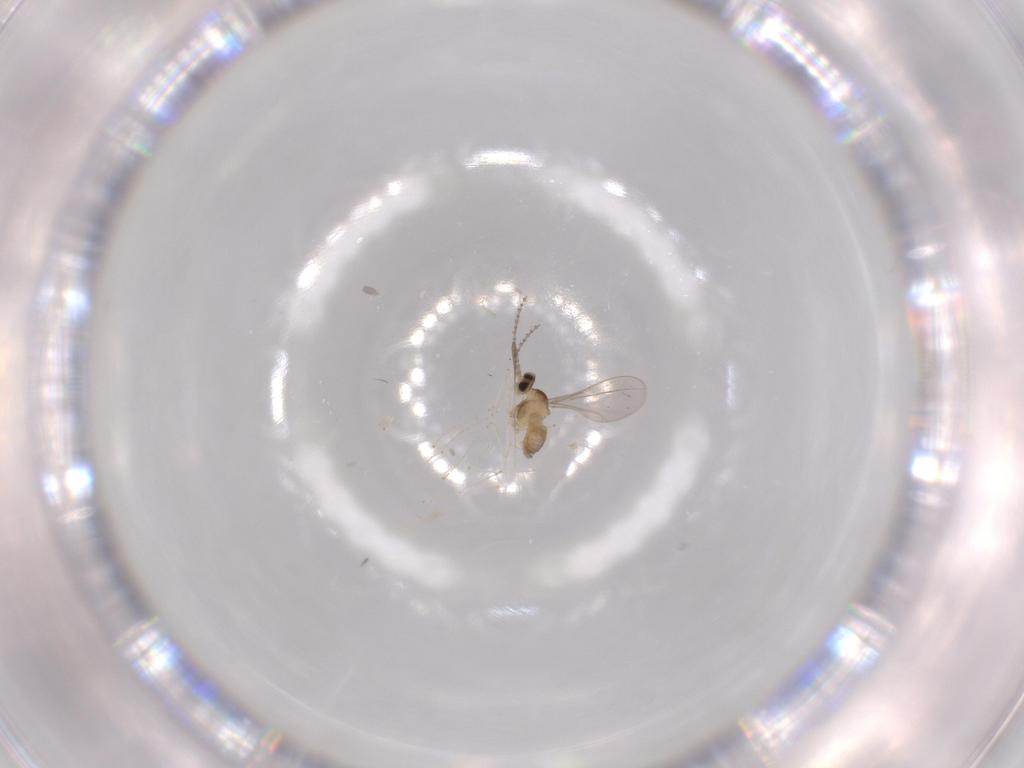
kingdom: Animalia
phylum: Arthropoda
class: Insecta
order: Diptera
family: Cecidomyiidae
